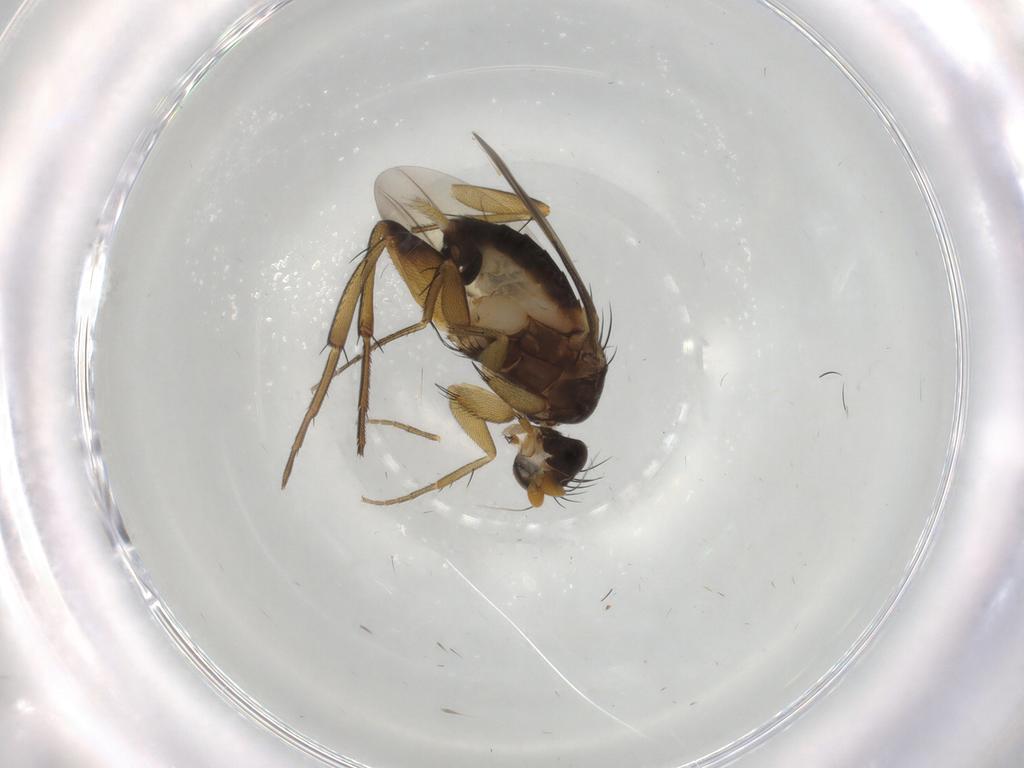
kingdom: Animalia
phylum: Arthropoda
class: Insecta
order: Diptera
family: Phoridae
